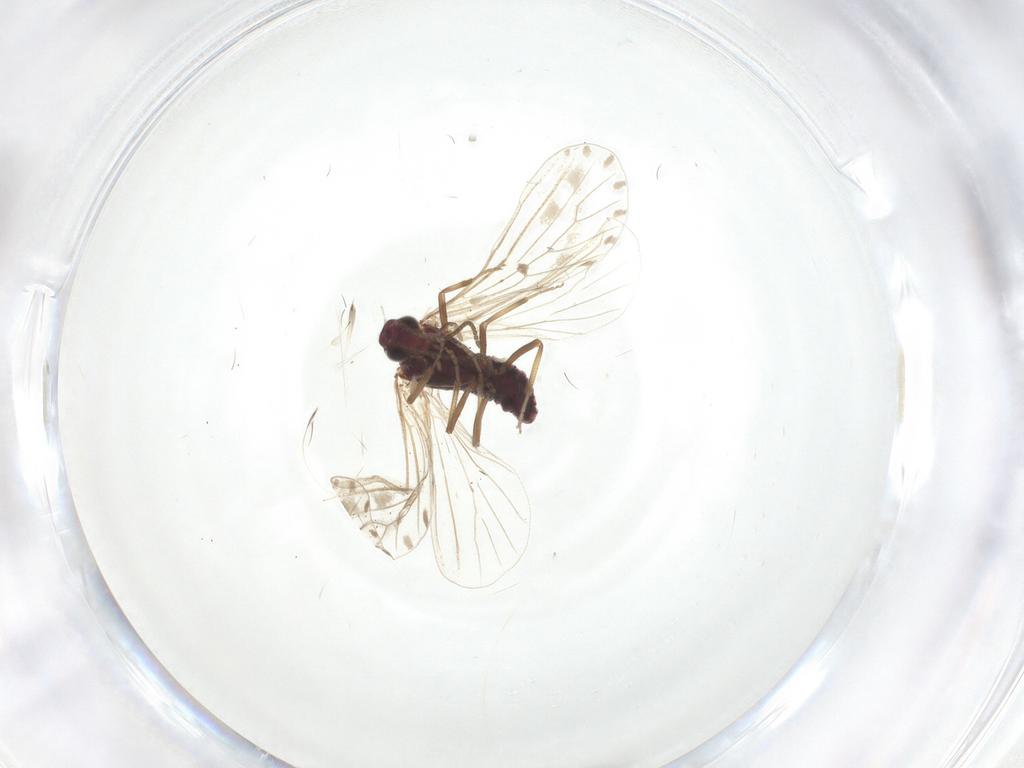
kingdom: Animalia
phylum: Arthropoda
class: Insecta
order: Neuroptera
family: Coniopterygidae
